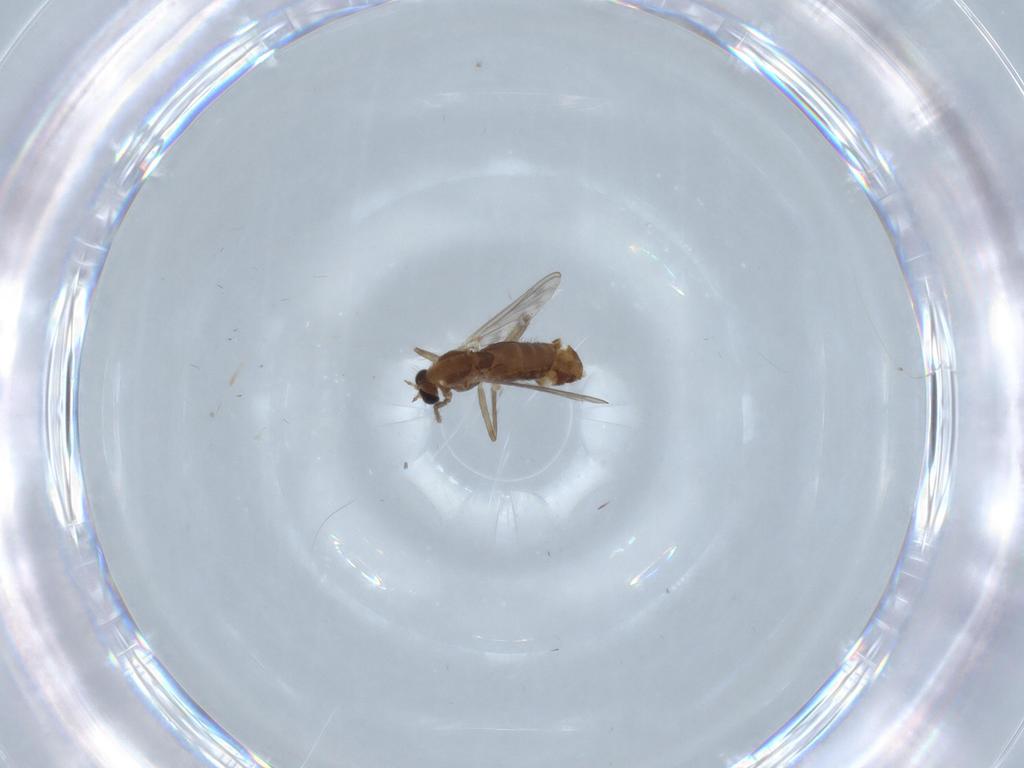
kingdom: Animalia
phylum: Arthropoda
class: Insecta
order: Diptera
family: Chironomidae
